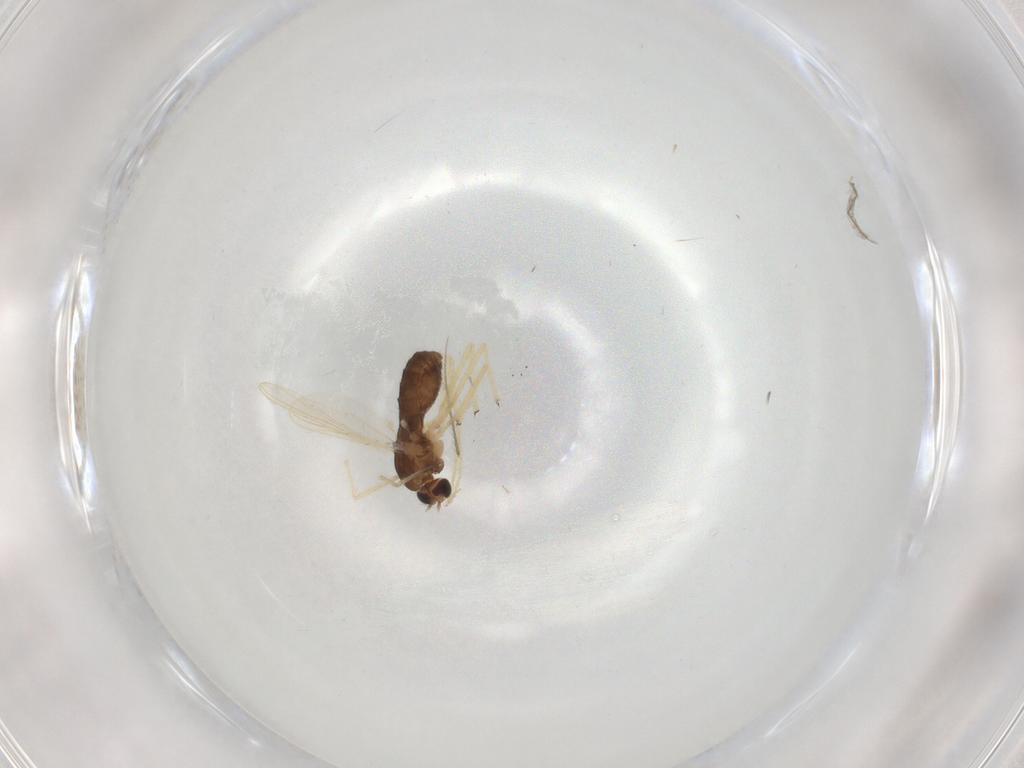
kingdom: Animalia
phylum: Arthropoda
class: Insecta
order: Diptera
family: Chironomidae
